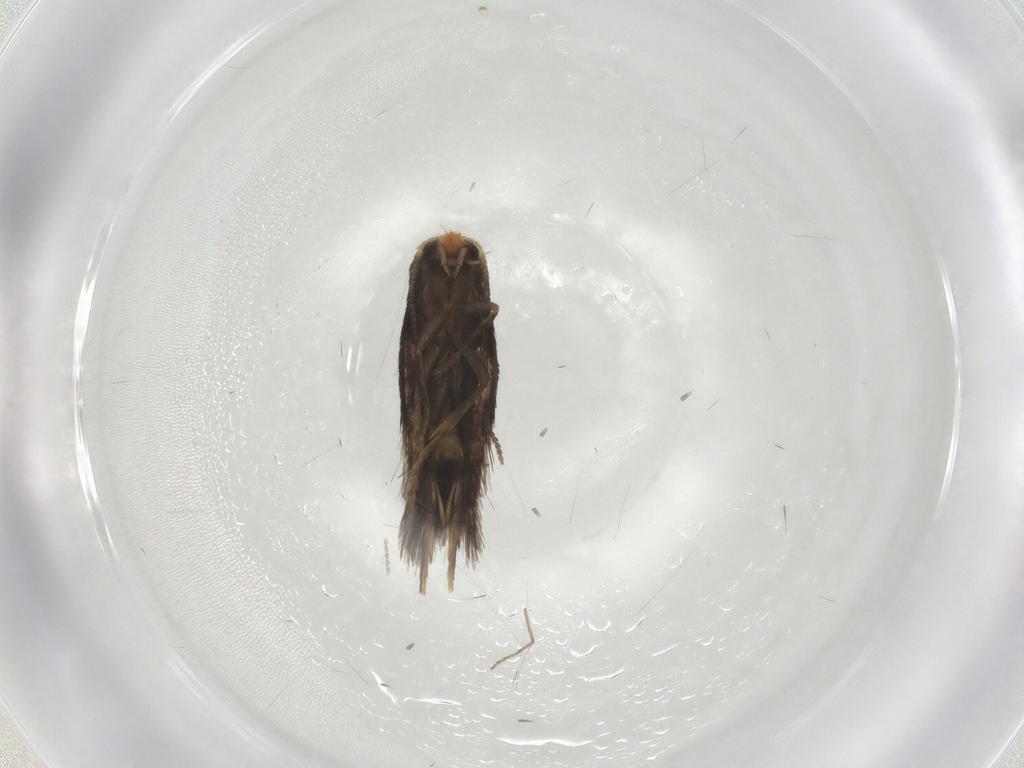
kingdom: Animalia
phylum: Arthropoda
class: Insecta
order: Lepidoptera
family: Nepticulidae
